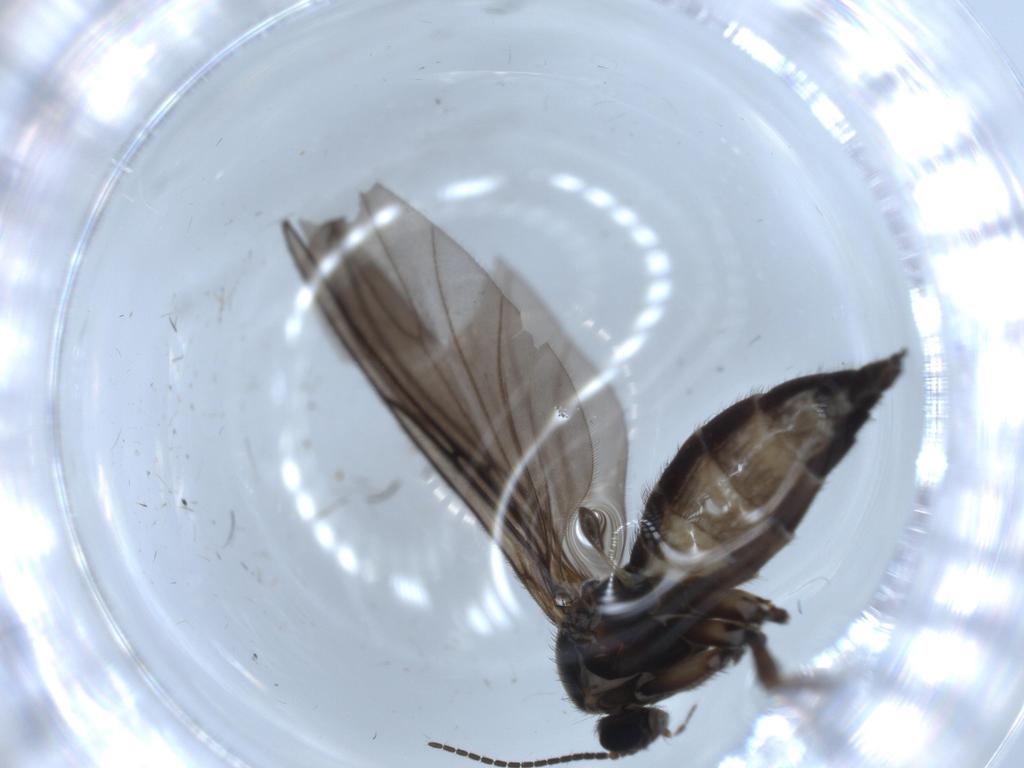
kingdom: Animalia
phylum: Arthropoda
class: Insecta
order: Diptera
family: Sciaridae
